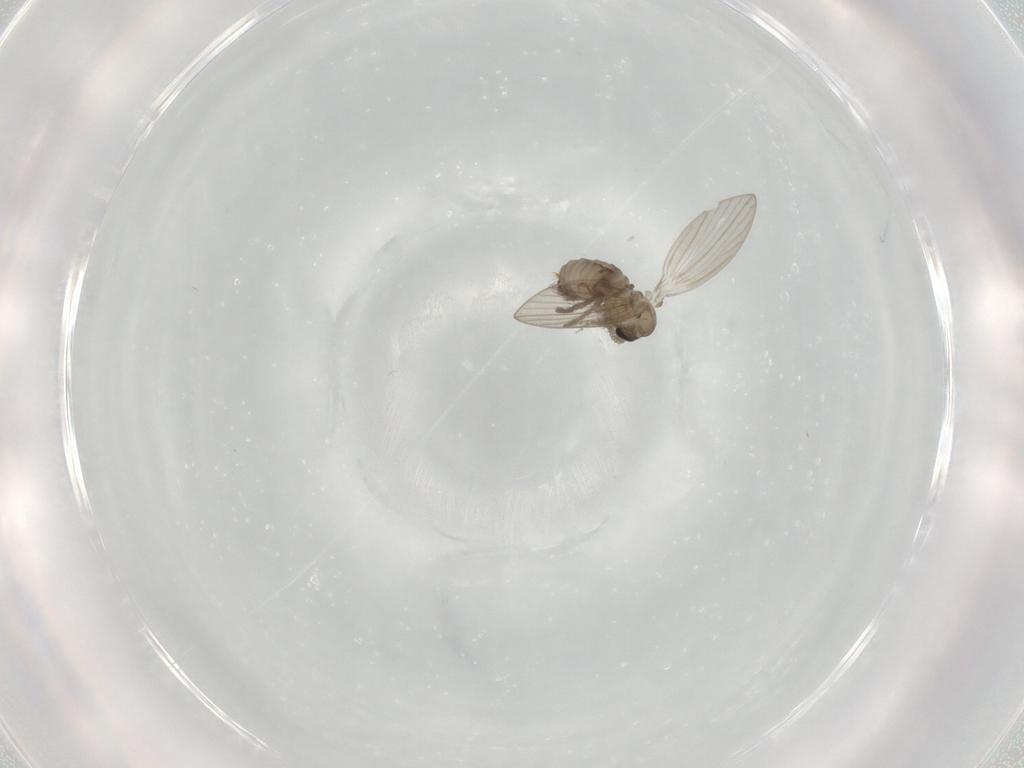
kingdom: Animalia
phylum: Arthropoda
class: Insecta
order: Diptera
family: Psychodidae
